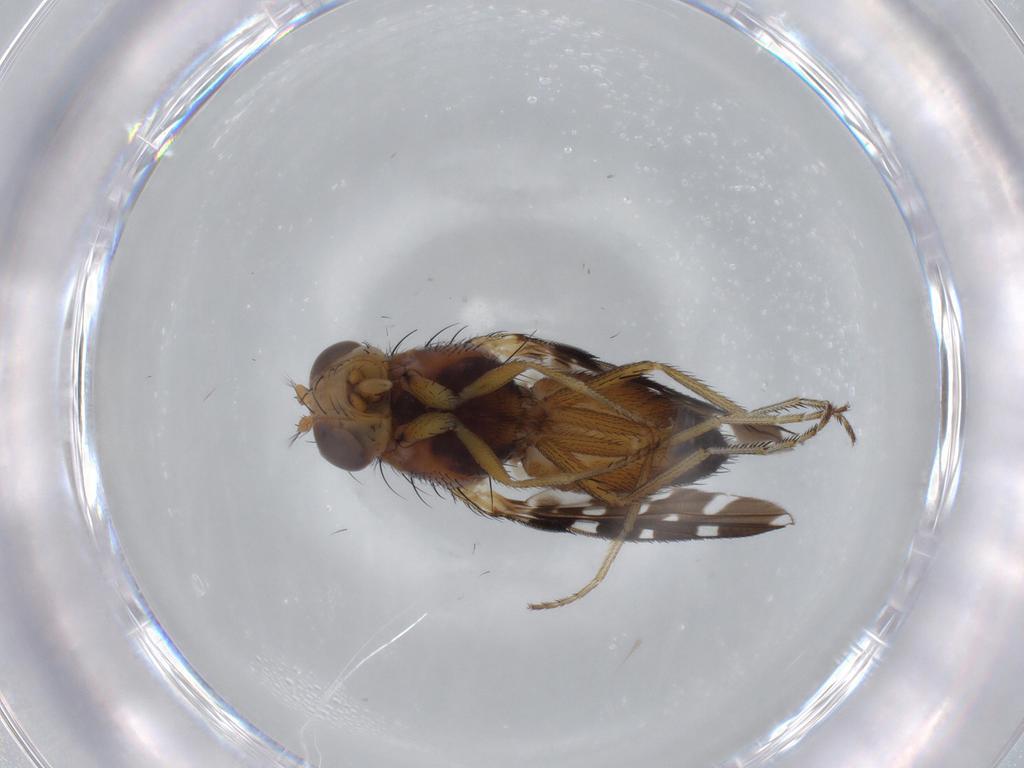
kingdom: Animalia
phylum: Arthropoda
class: Insecta
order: Diptera
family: Ephydridae
